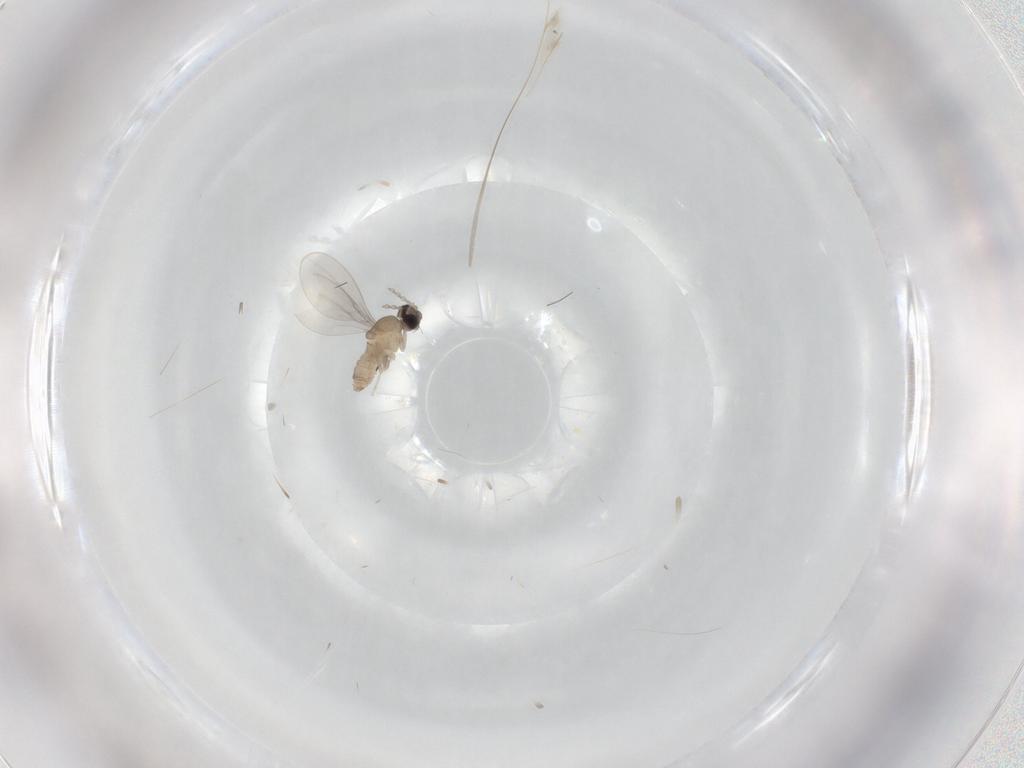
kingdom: Animalia
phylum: Arthropoda
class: Insecta
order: Diptera
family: Cecidomyiidae
